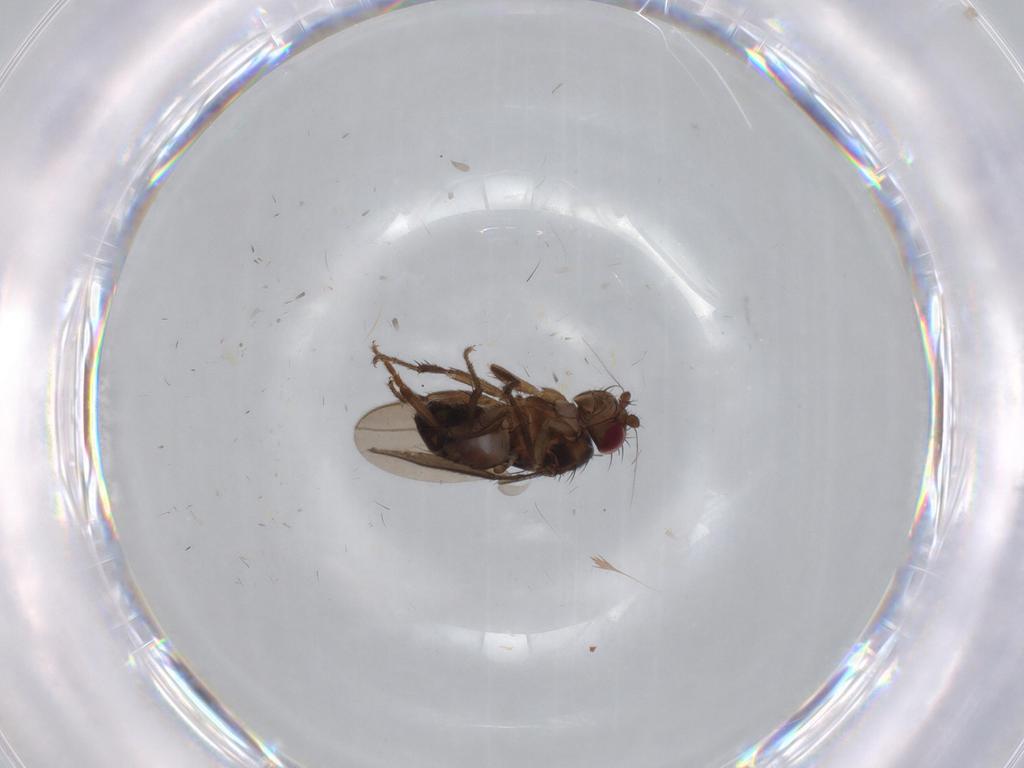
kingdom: Animalia
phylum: Arthropoda
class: Insecta
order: Diptera
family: Sphaeroceridae
